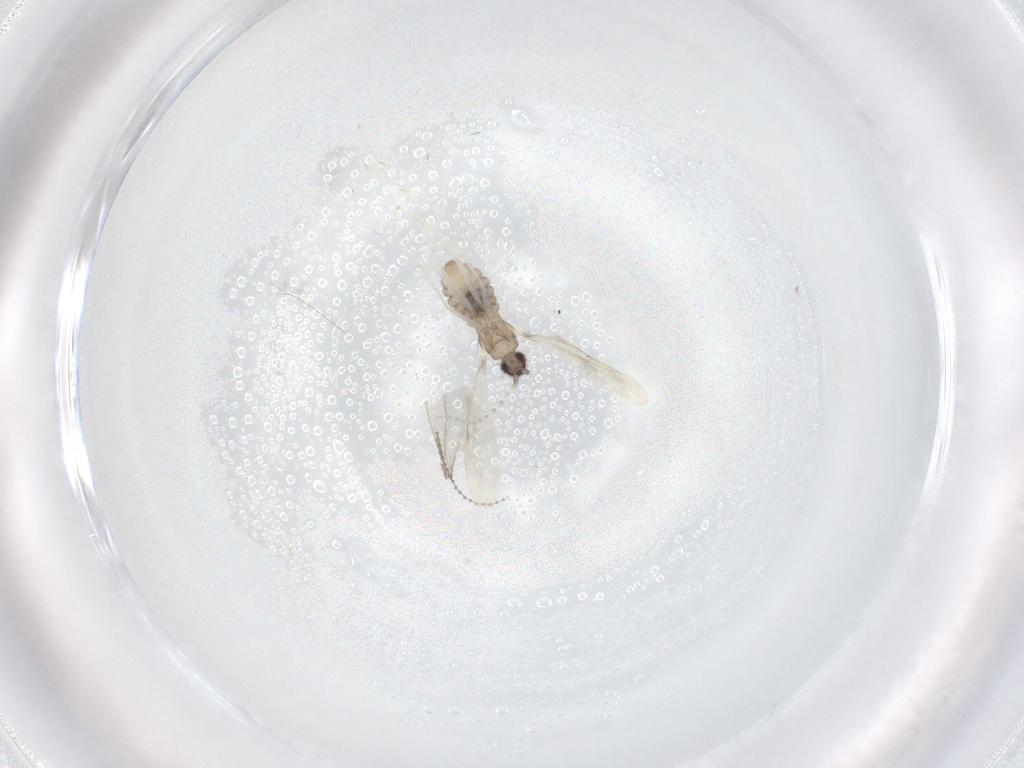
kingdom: Animalia
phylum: Arthropoda
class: Insecta
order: Diptera
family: Cecidomyiidae
